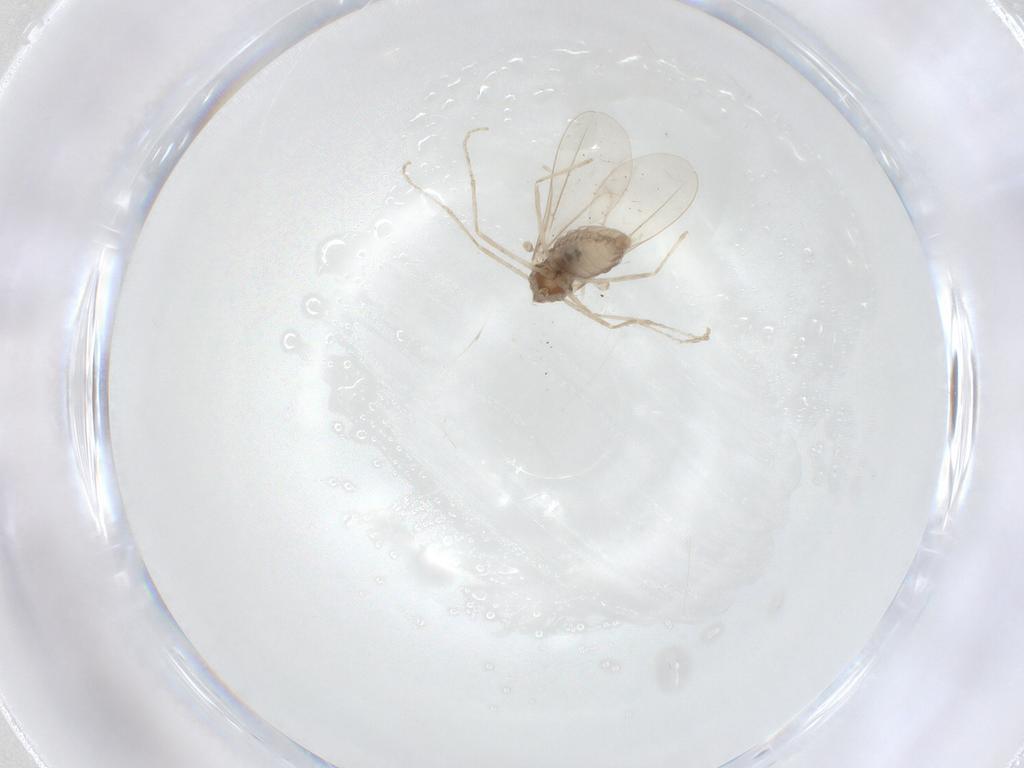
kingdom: Animalia
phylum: Arthropoda
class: Insecta
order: Diptera
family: Cecidomyiidae
